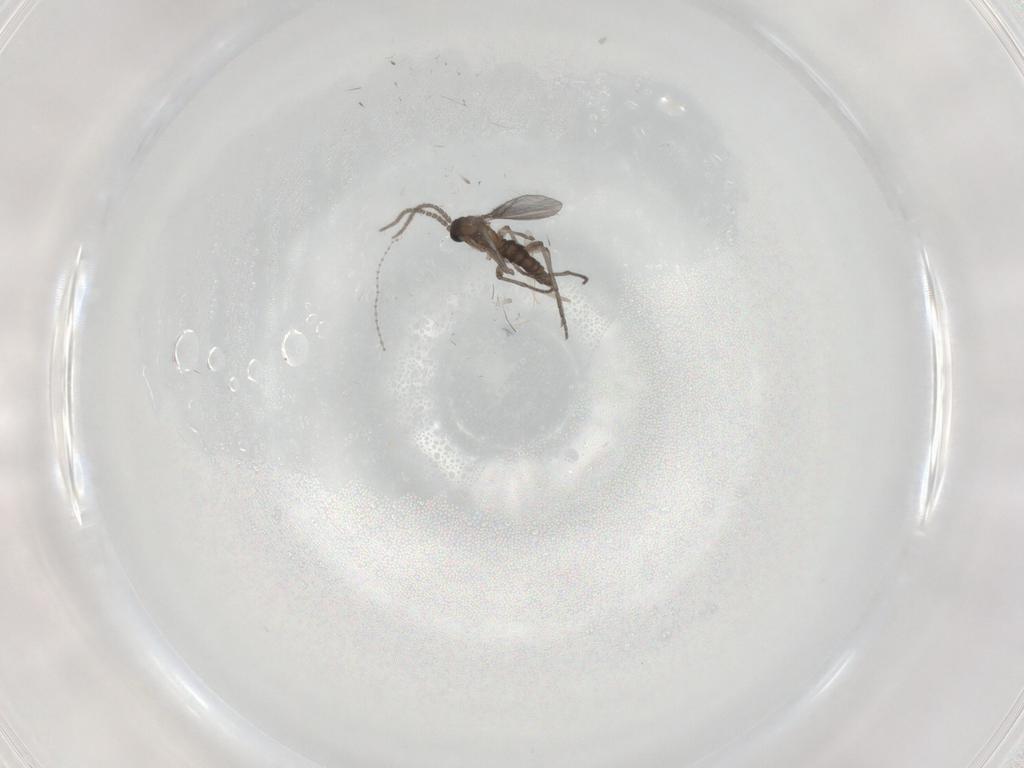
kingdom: Animalia
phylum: Arthropoda
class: Insecta
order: Diptera
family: Sciaridae
